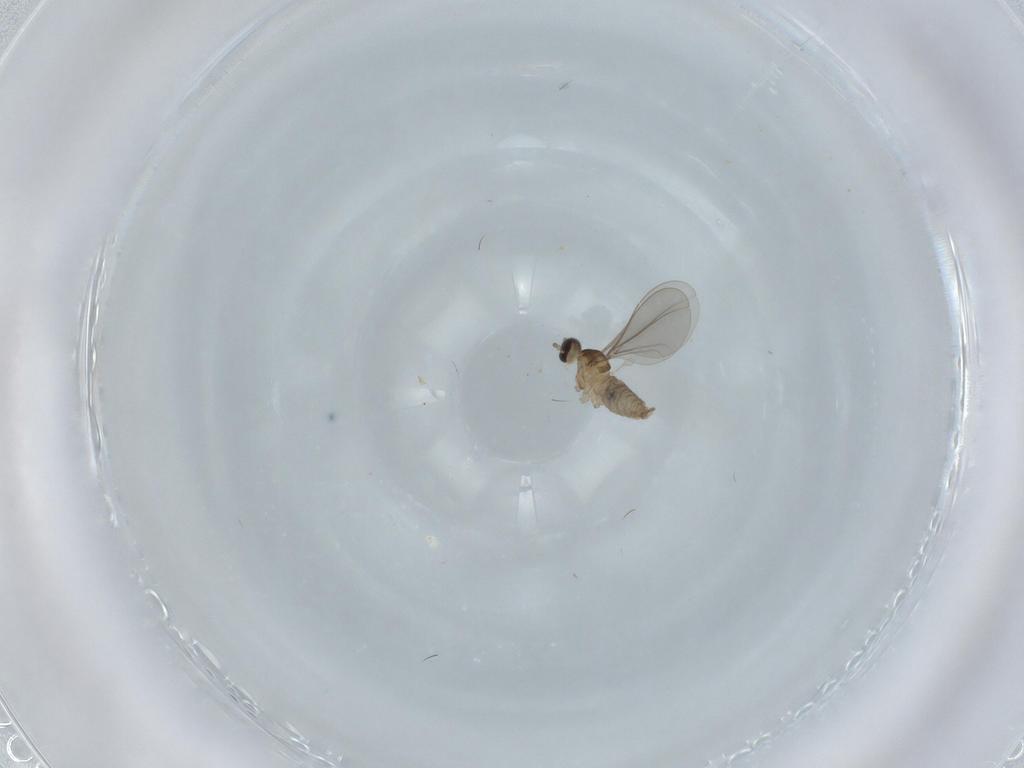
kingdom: Animalia
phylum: Arthropoda
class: Insecta
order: Diptera
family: Cecidomyiidae
